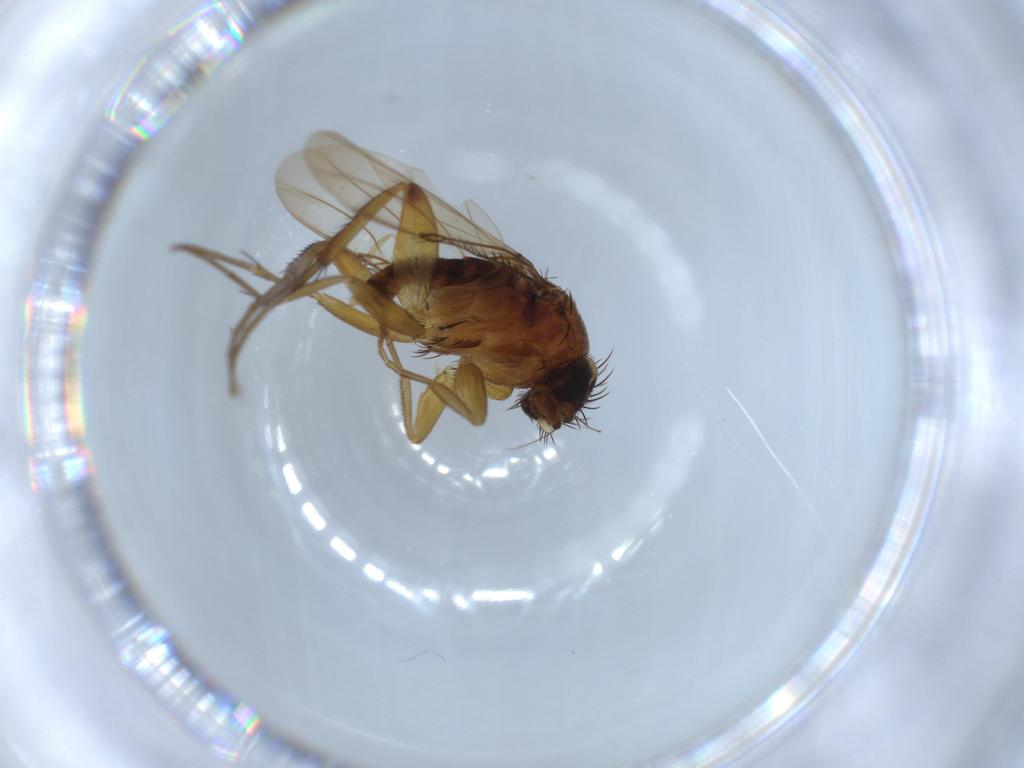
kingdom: Animalia
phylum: Arthropoda
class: Insecta
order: Diptera
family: Phoridae
